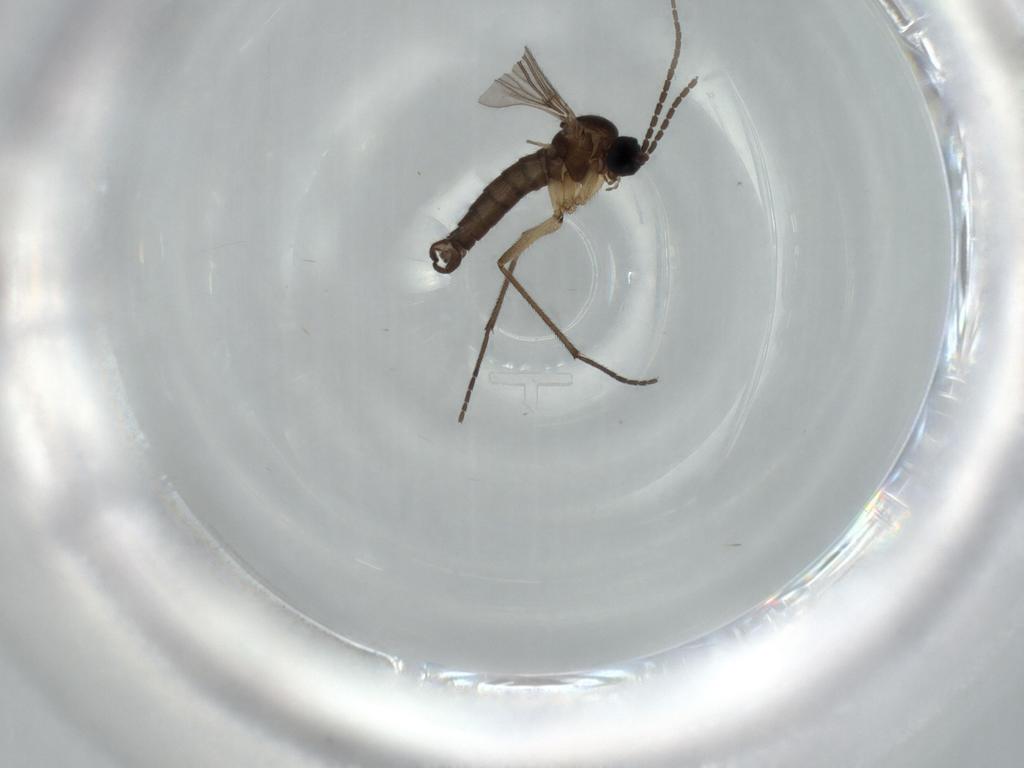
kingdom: Animalia
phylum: Arthropoda
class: Insecta
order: Diptera
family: Sciaridae
